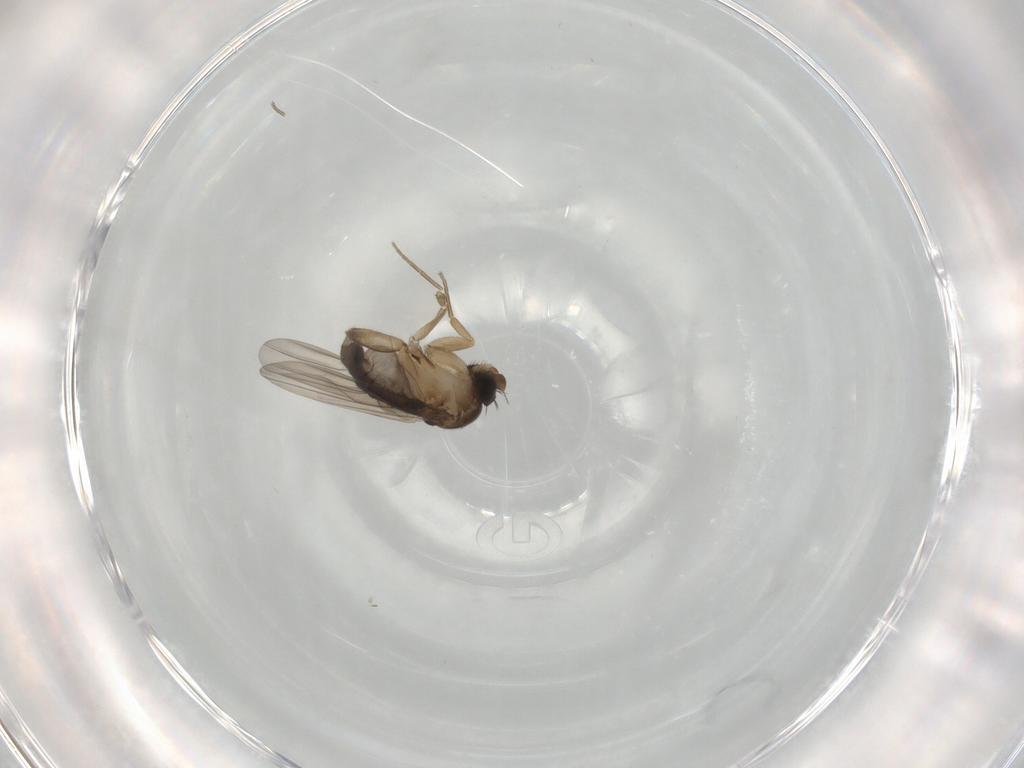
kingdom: Animalia
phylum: Arthropoda
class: Insecta
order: Diptera
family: Phoridae
